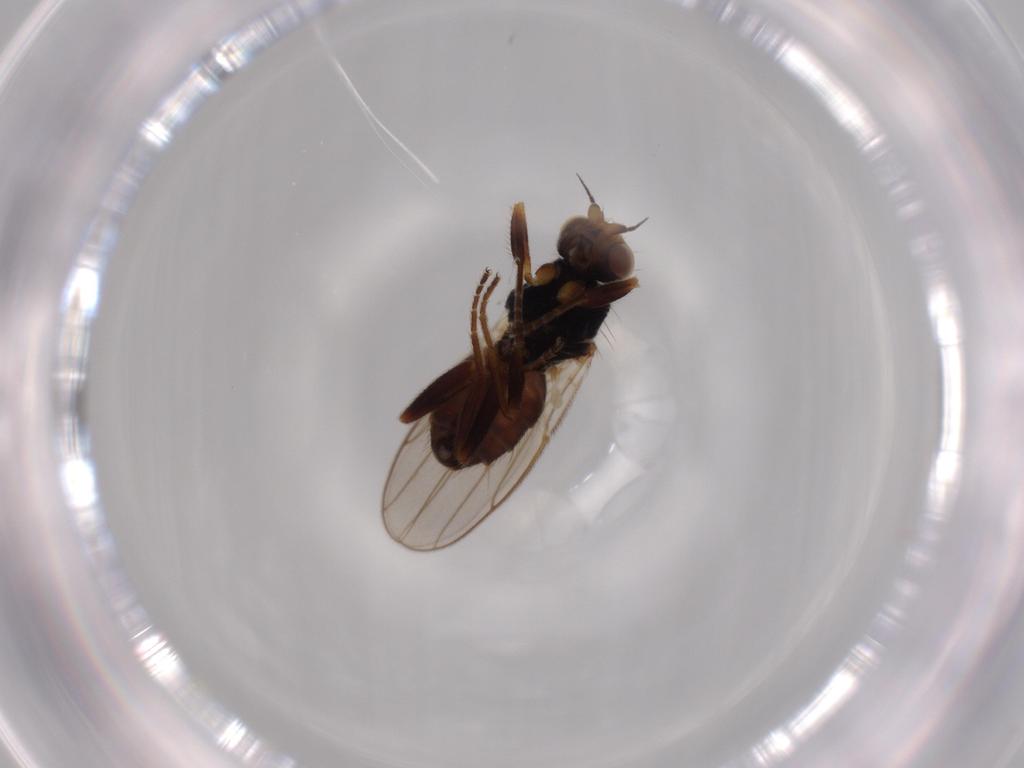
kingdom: Animalia
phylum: Arthropoda
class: Insecta
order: Diptera
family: Chloropidae
